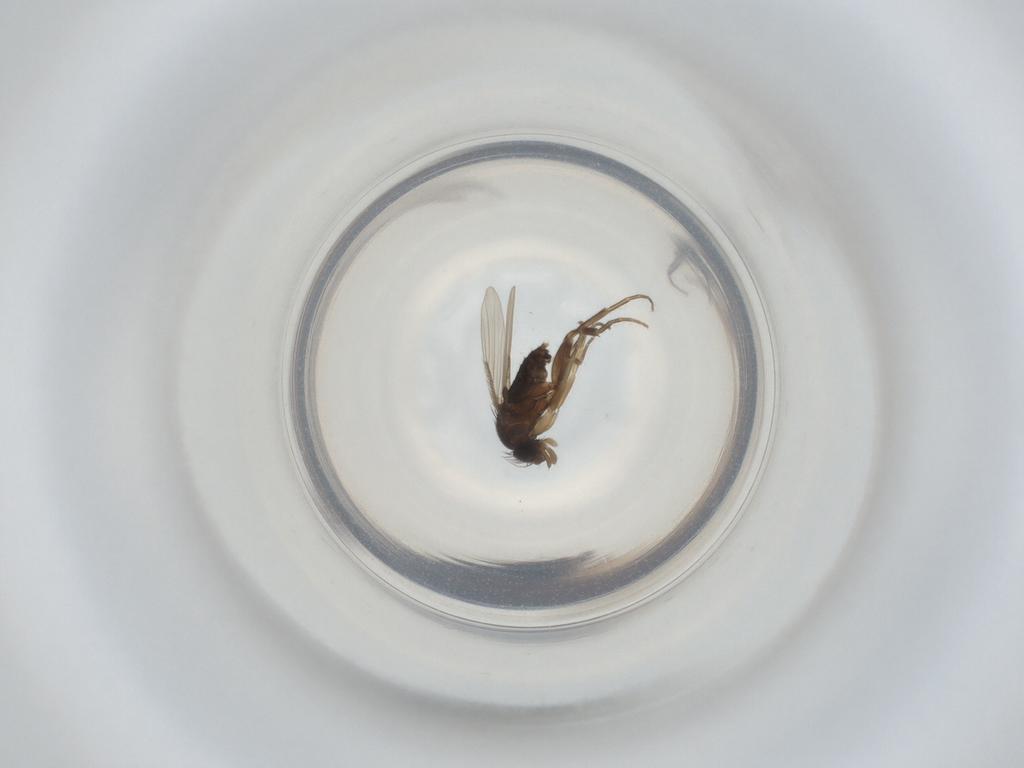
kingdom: Animalia
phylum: Arthropoda
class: Insecta
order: Diptera
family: Phoridae
